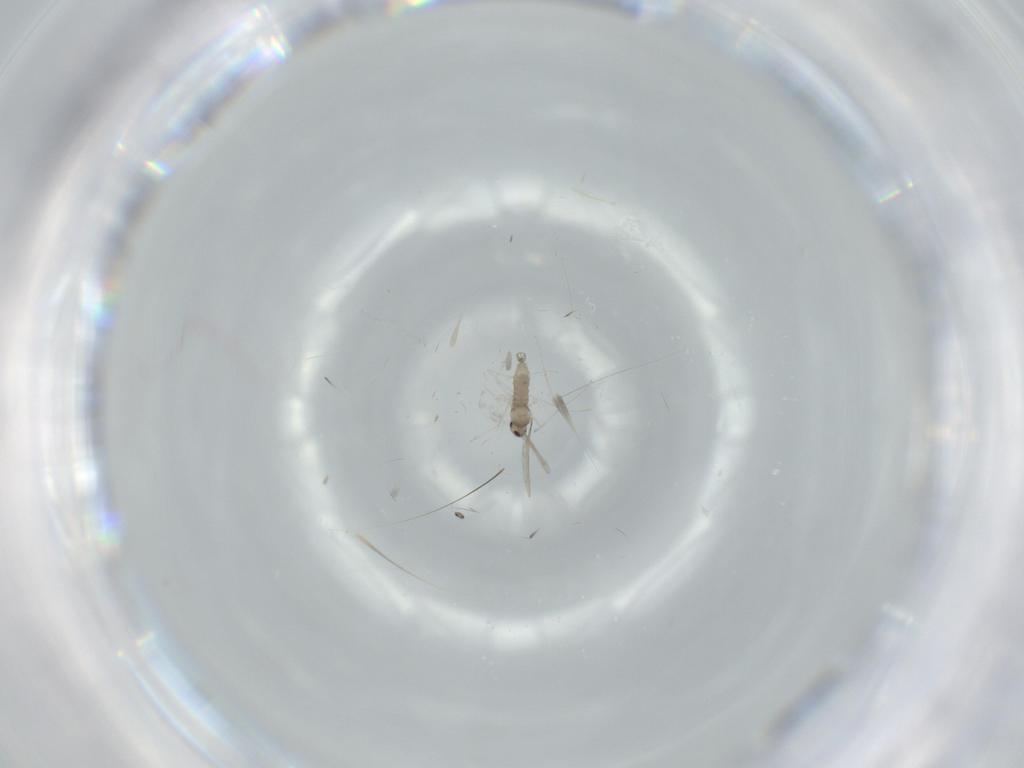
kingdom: Animalia
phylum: Arthropoda
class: Insecta
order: Diptera
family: Cecidomyiidae
